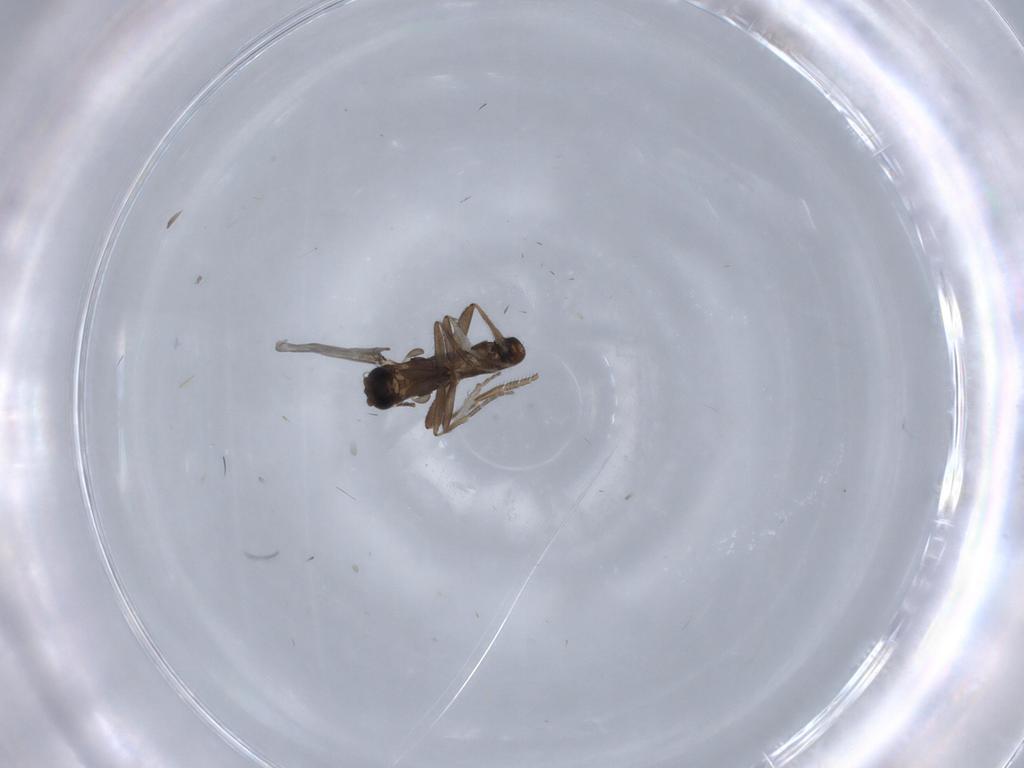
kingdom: Animalia
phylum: Arthropoda
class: Insecta
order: Diptera
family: Phoridae
